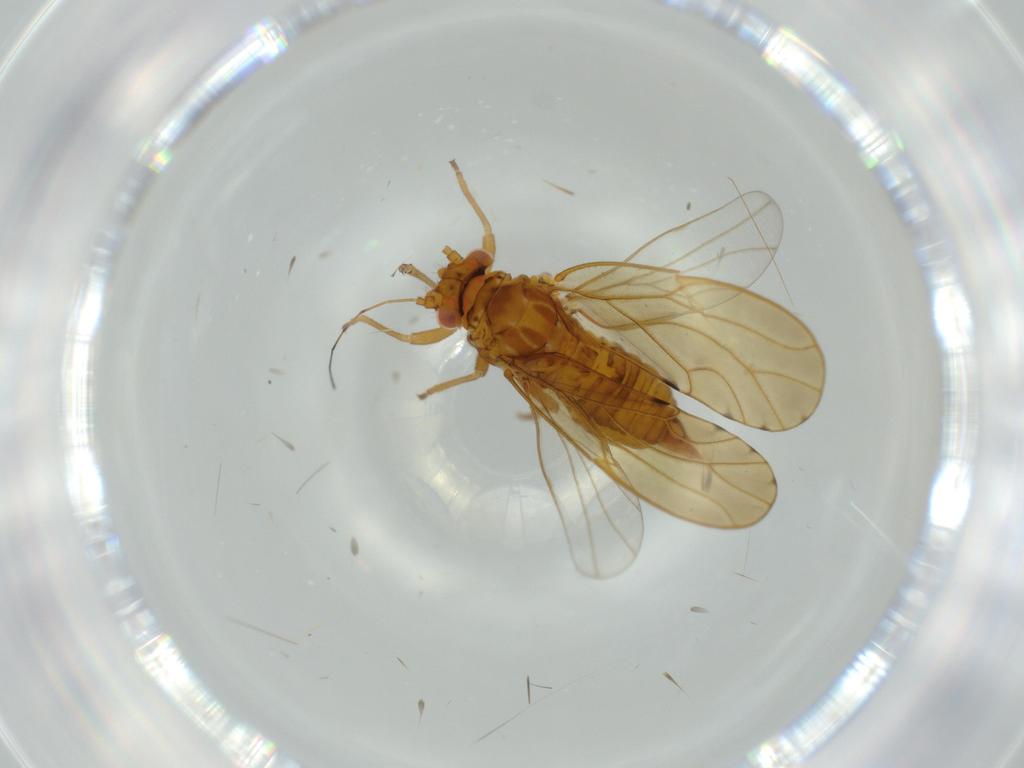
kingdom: Animalia
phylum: Arthropoda
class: Insecta
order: Hemiptera
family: Psylloidea_incertae_sedis
